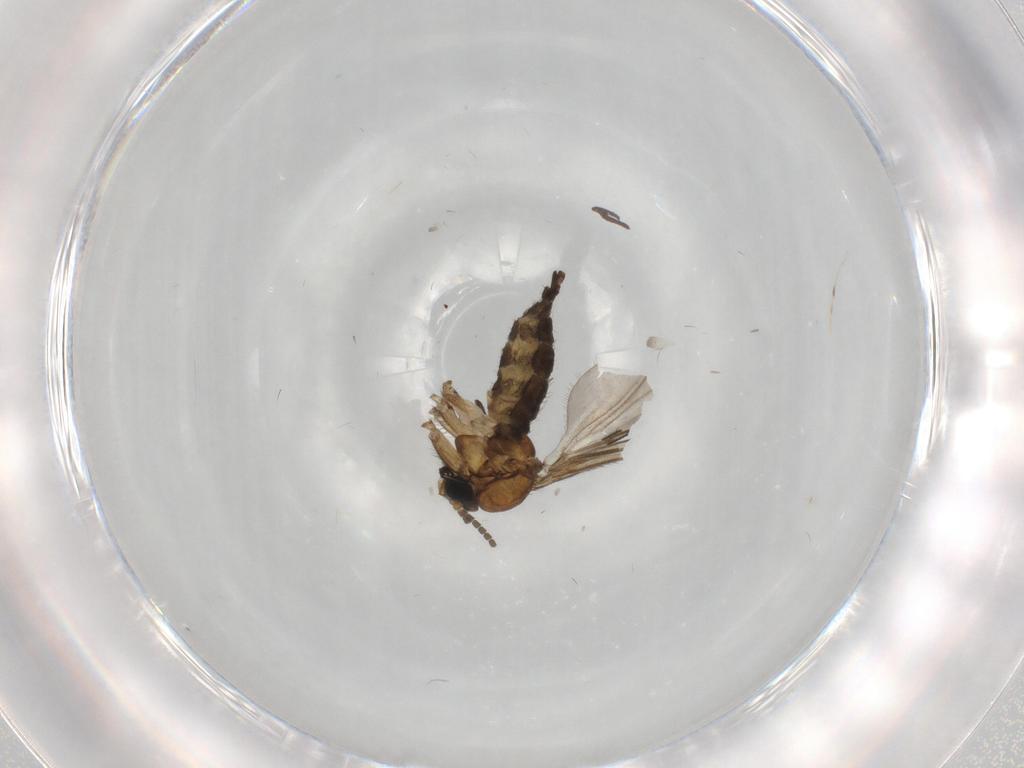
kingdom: Animalia
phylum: Arthropoda
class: Insecta
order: Diptera
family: Sciaridae
